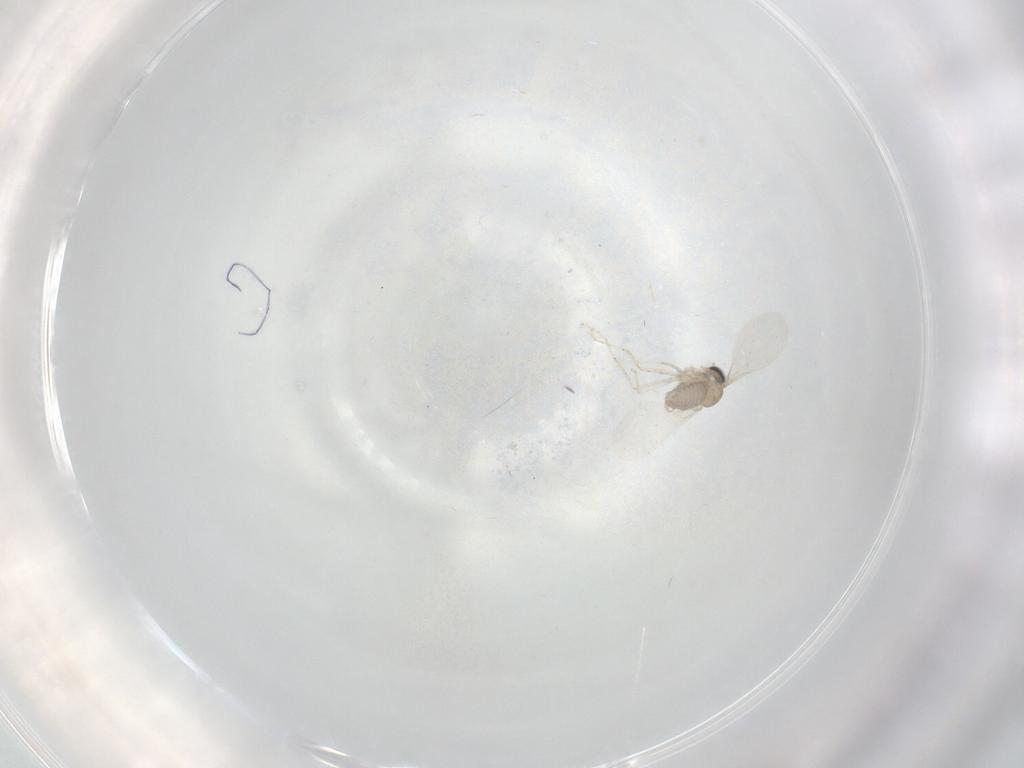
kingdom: Animalia
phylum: Arthropoda
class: Insecta
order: Diptera
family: Cecidomyiidae
